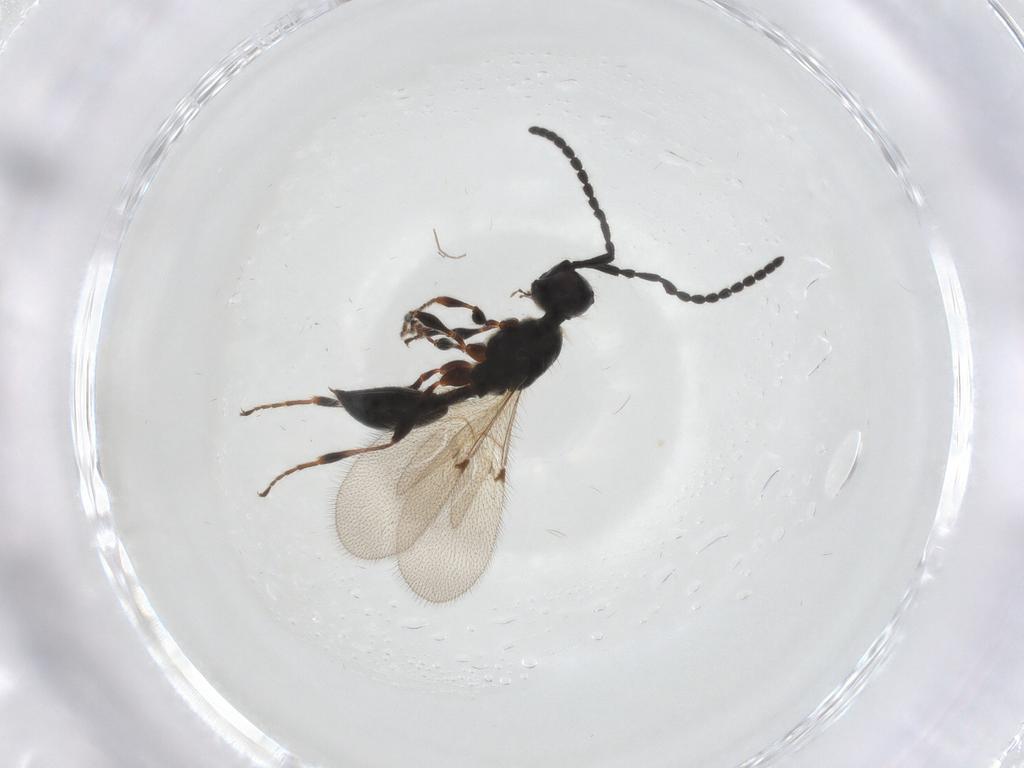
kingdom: Animalia
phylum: Arthropoda
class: Insecta
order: Hymenoptera
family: Diapriidae
